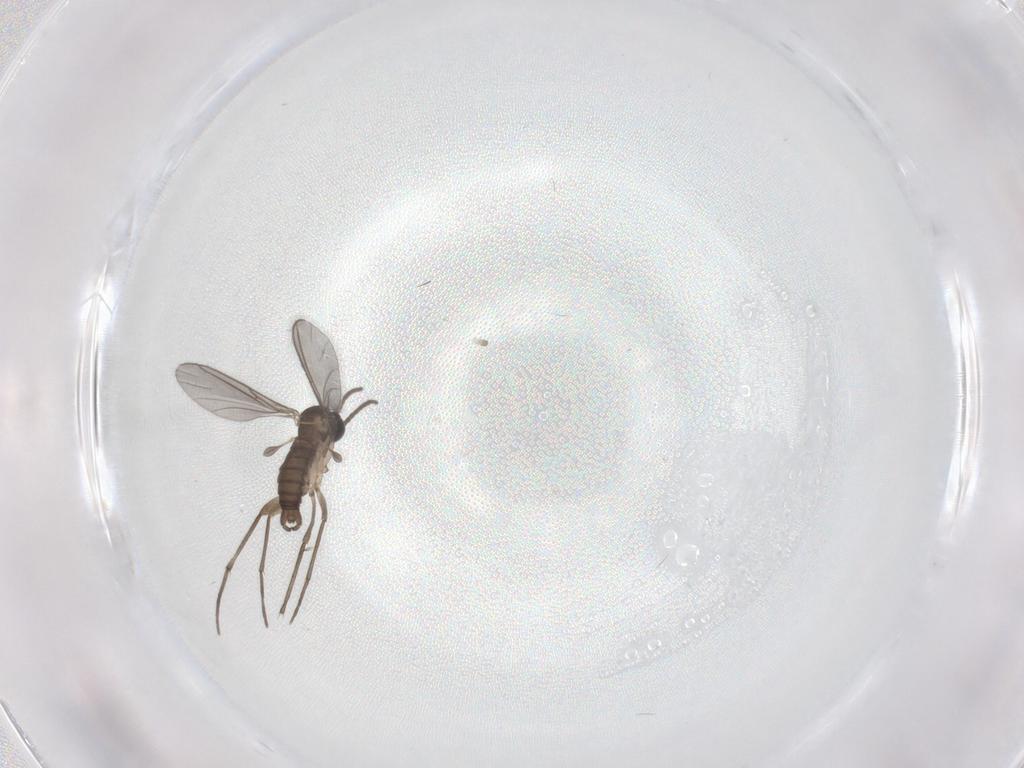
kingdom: Animalia
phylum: Arthropoda
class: Insecta
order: Diptera
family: Sciaridae
